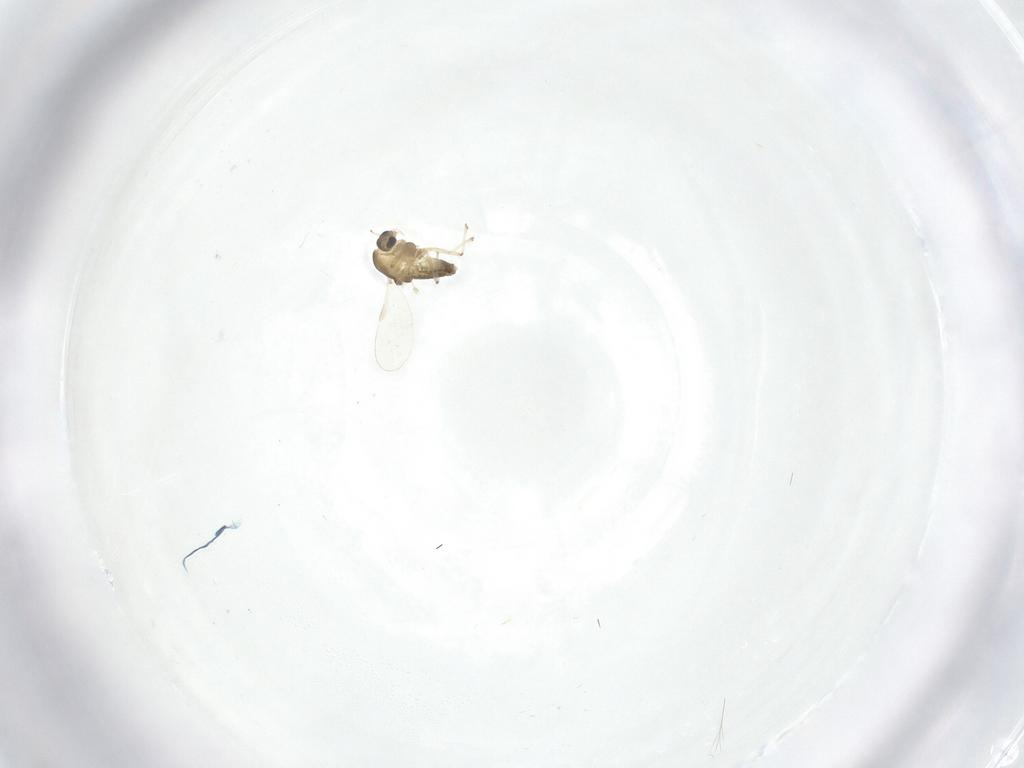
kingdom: Animalia
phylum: Arthropoda
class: Insecta
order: Diptera
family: Chironomidae
